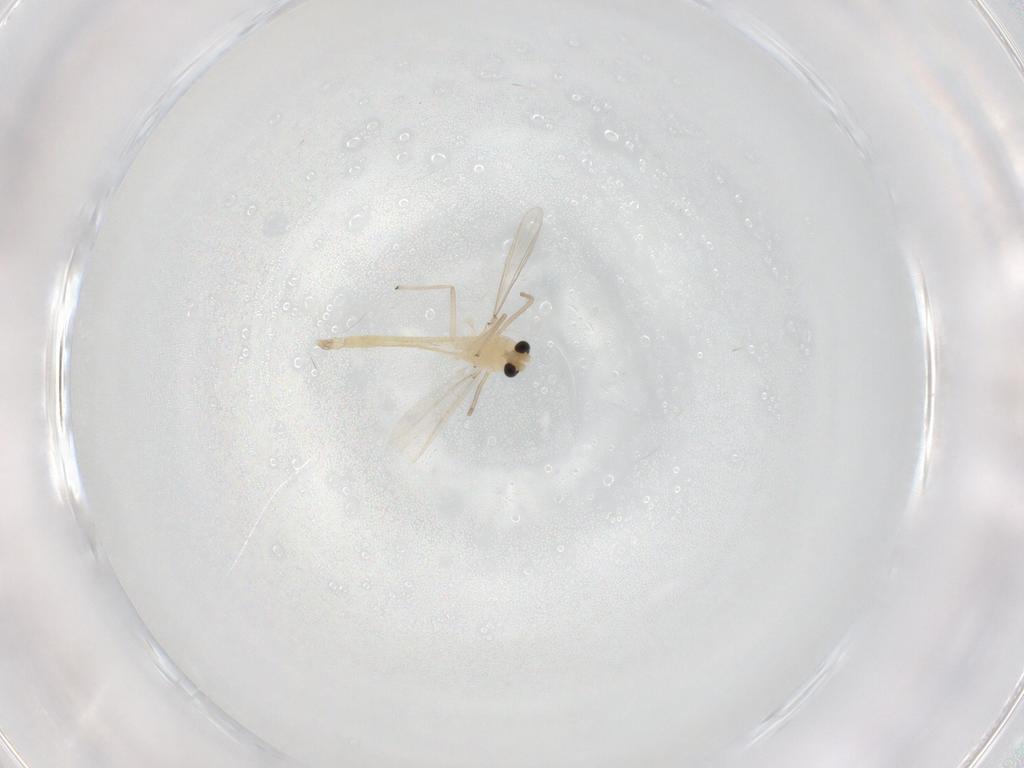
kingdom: Animalia
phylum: Arthropoda
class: Insecta
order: Diptera
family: Chironomidae
